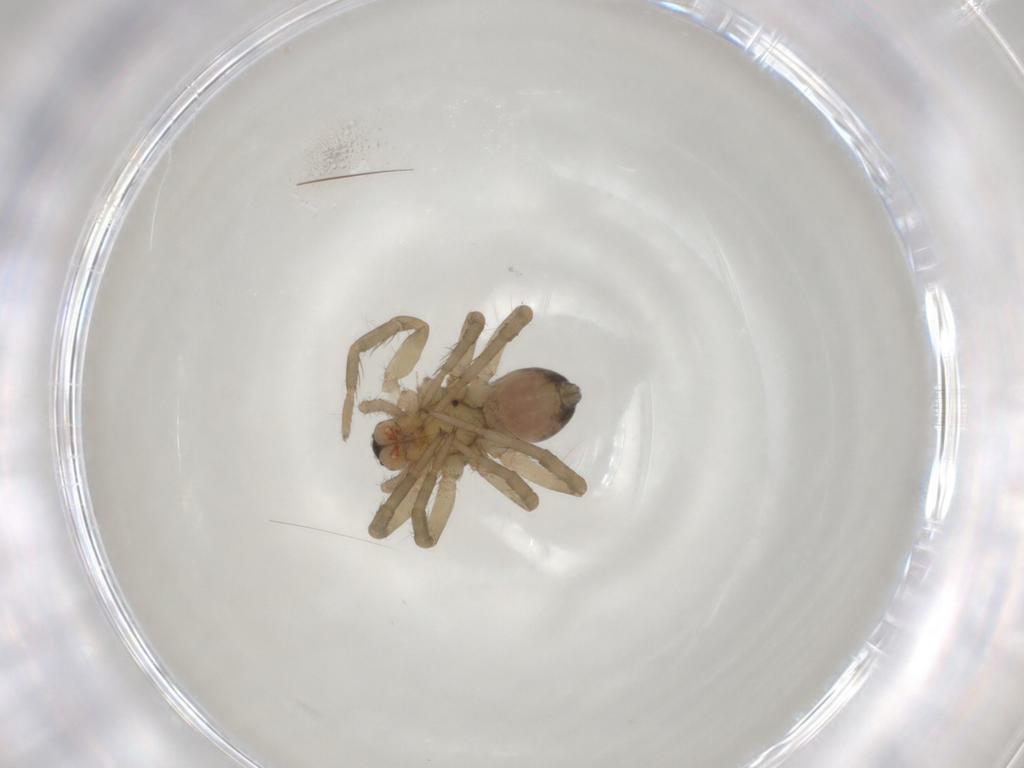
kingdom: Animalia
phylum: Arthropoda
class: Arachnida
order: Araneae
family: Lycosidae
